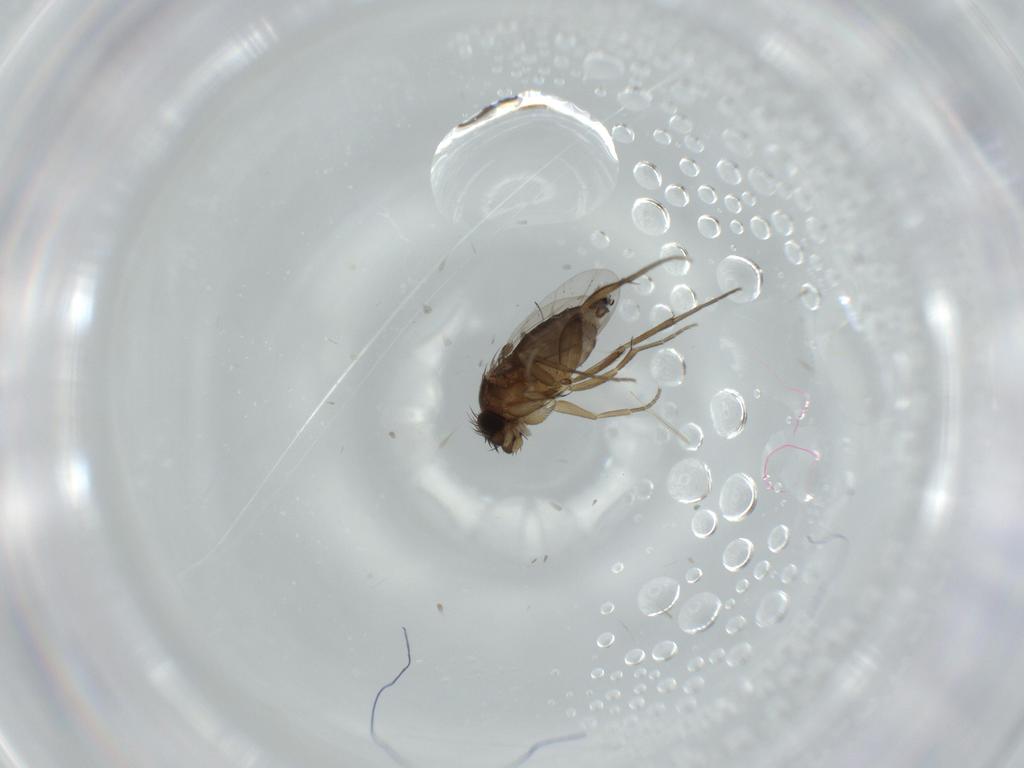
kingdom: Animalia
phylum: Arthropoda
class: Insecta
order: Diptera
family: Phoridae
